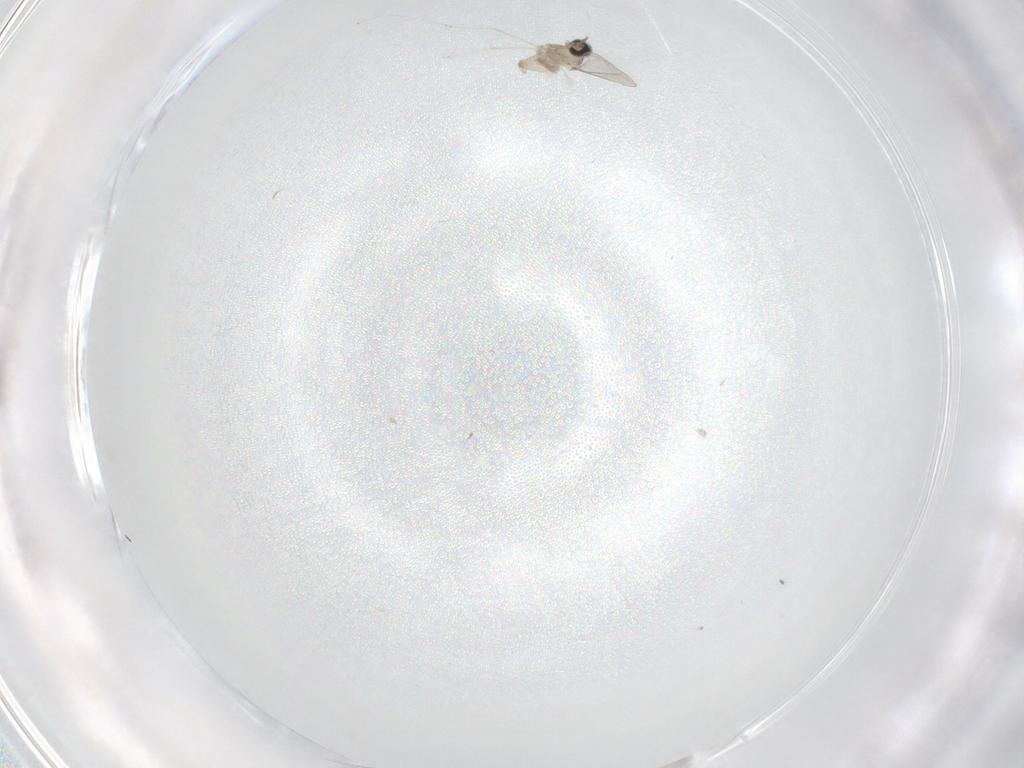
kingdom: Animalia
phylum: Arthropoda
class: Insecta
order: Diptera
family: Cecidomyiidae
